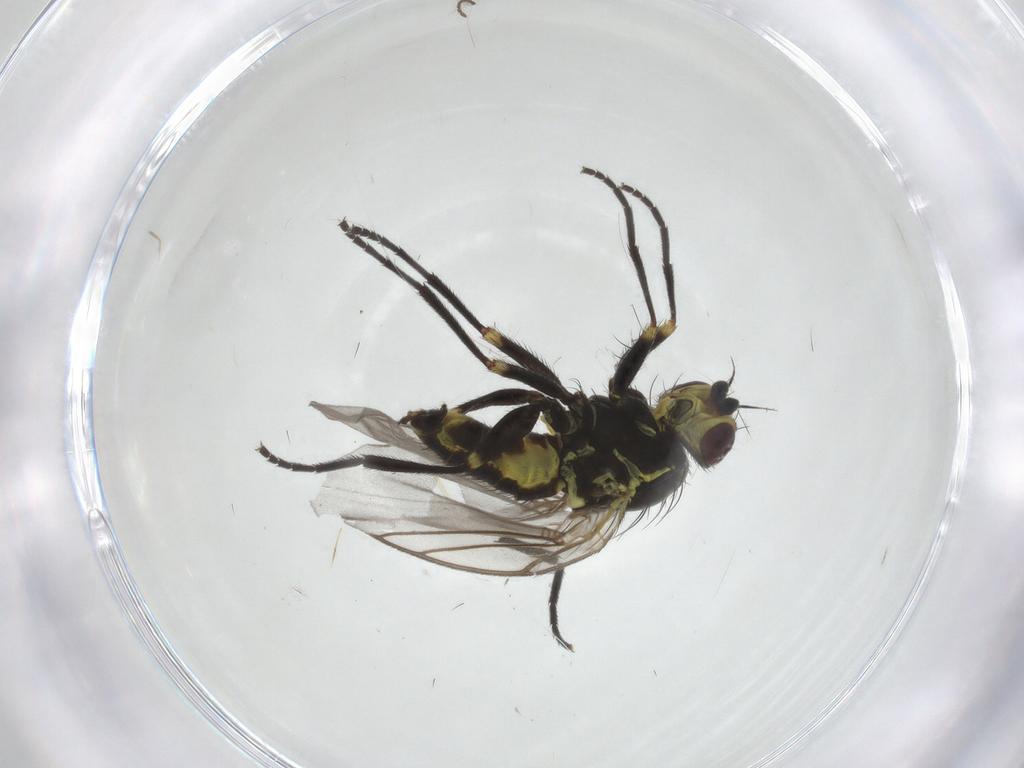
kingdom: Animalia
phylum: Arthropoda
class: Insecta
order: Diptera
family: Agromyzidae
